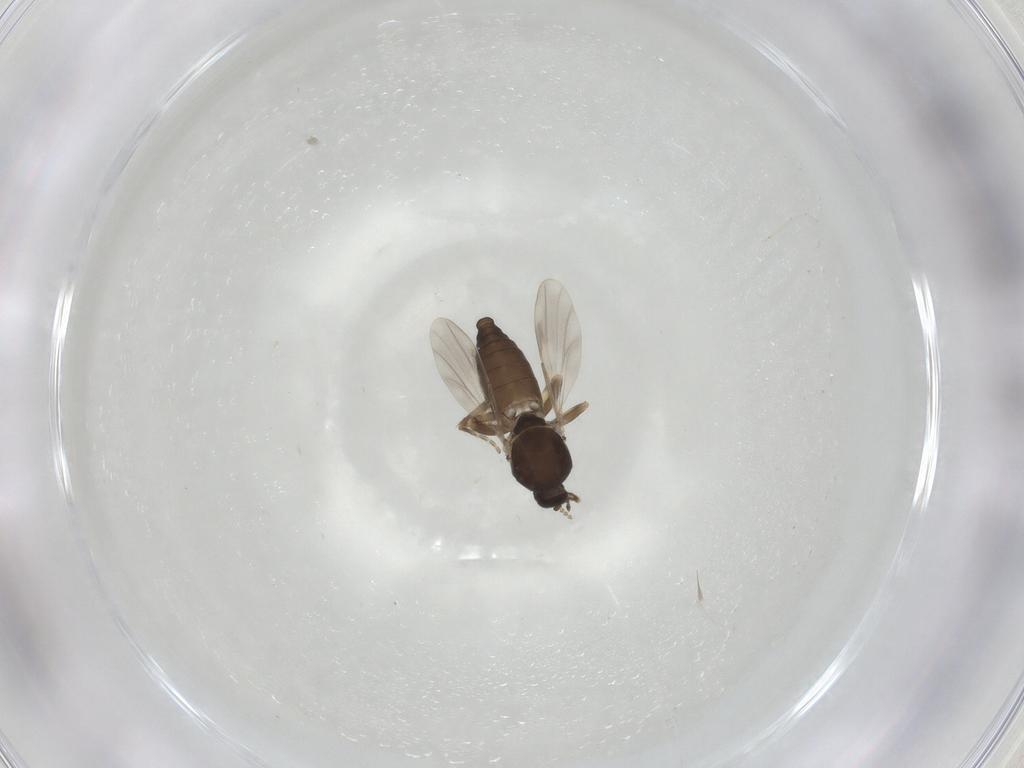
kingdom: Animalia
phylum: Arthropoda
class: Insecta
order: Diptera
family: Ceratopogonidae
